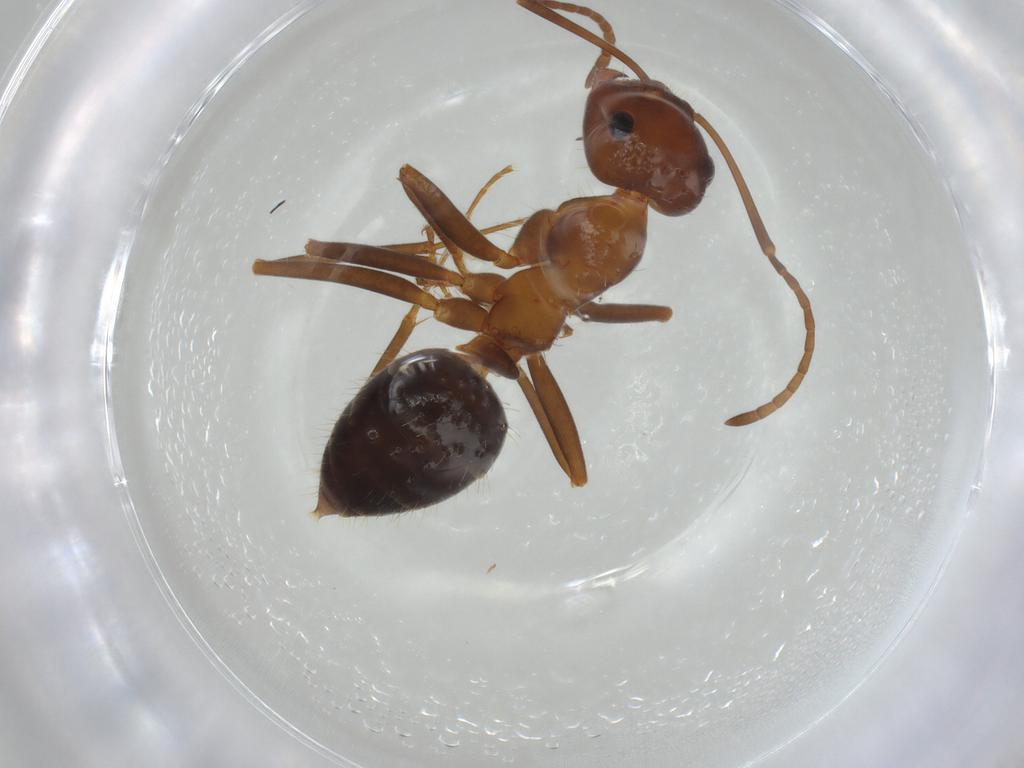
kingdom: Animalia
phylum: Arthropoda
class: Insecta
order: Hymenoptera
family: Formicidae
